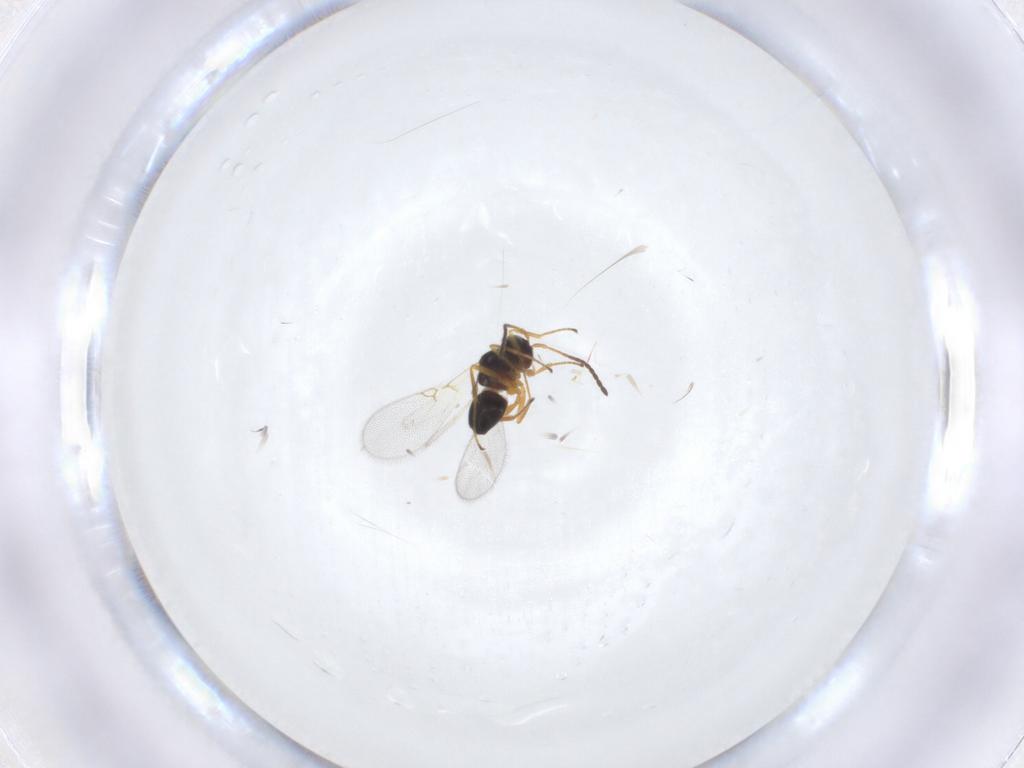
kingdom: Animalia
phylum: Arthropoda
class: Insecta
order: Hymenoptera
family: Figitidae
